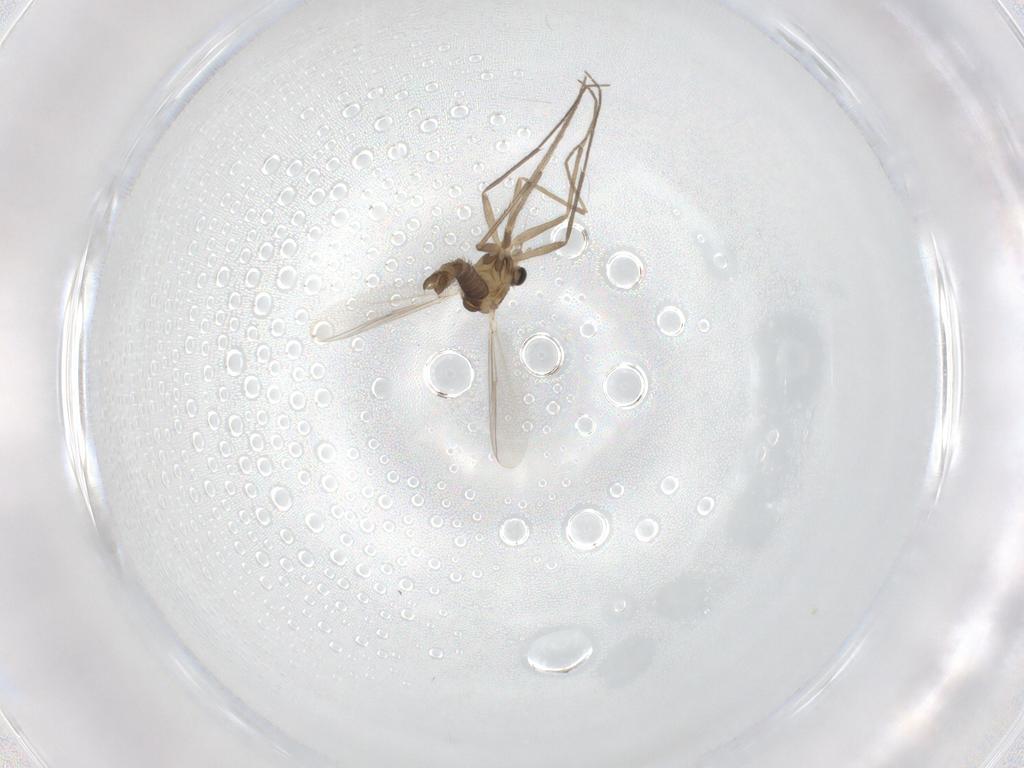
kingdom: Animalia
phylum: Arthropoda
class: Insecta
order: Diptera
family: Chironomidae
